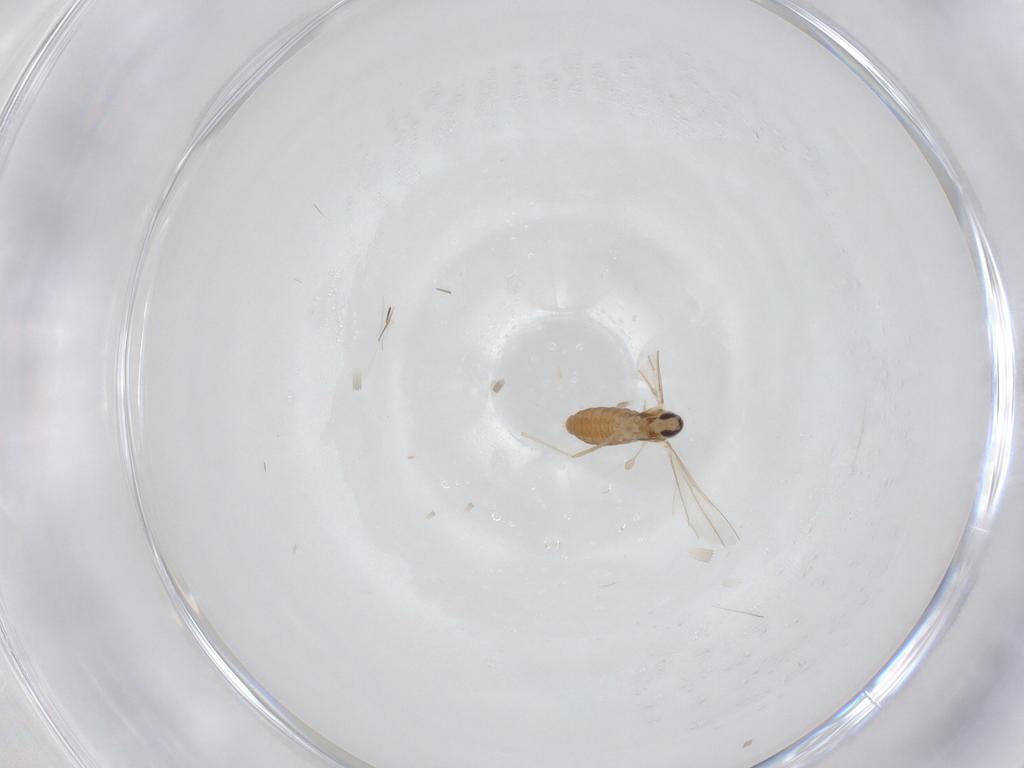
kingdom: Animalia
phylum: Arthropoda
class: Insecta
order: Diptera
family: Cecidomyiidae
